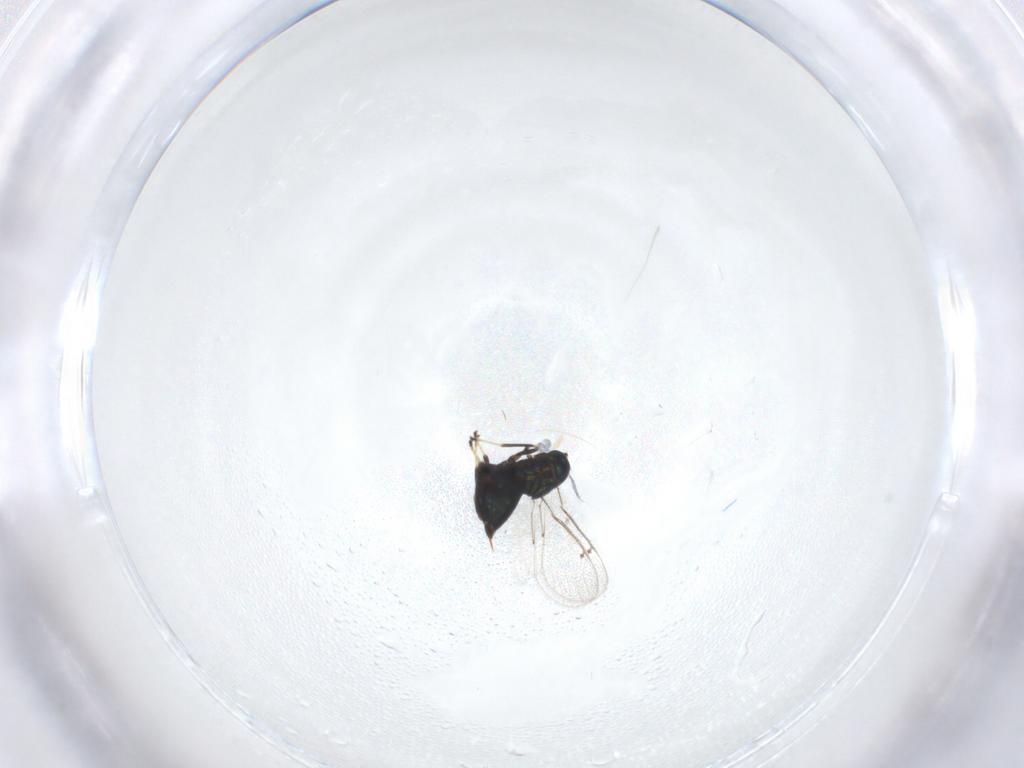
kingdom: Animalia
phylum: Arthropoda
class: Insecta
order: Hymenoptera
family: Eulophidae
